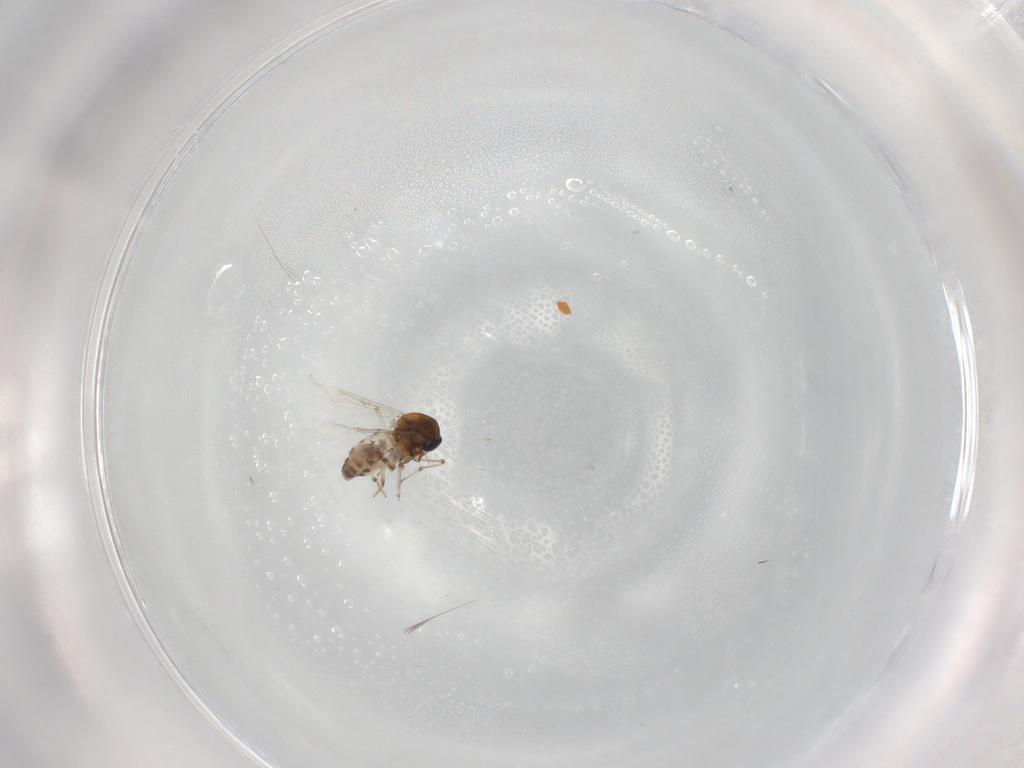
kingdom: Animalia
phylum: Arthropoda
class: Insecta
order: Diptera
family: Ceratopogonidae
